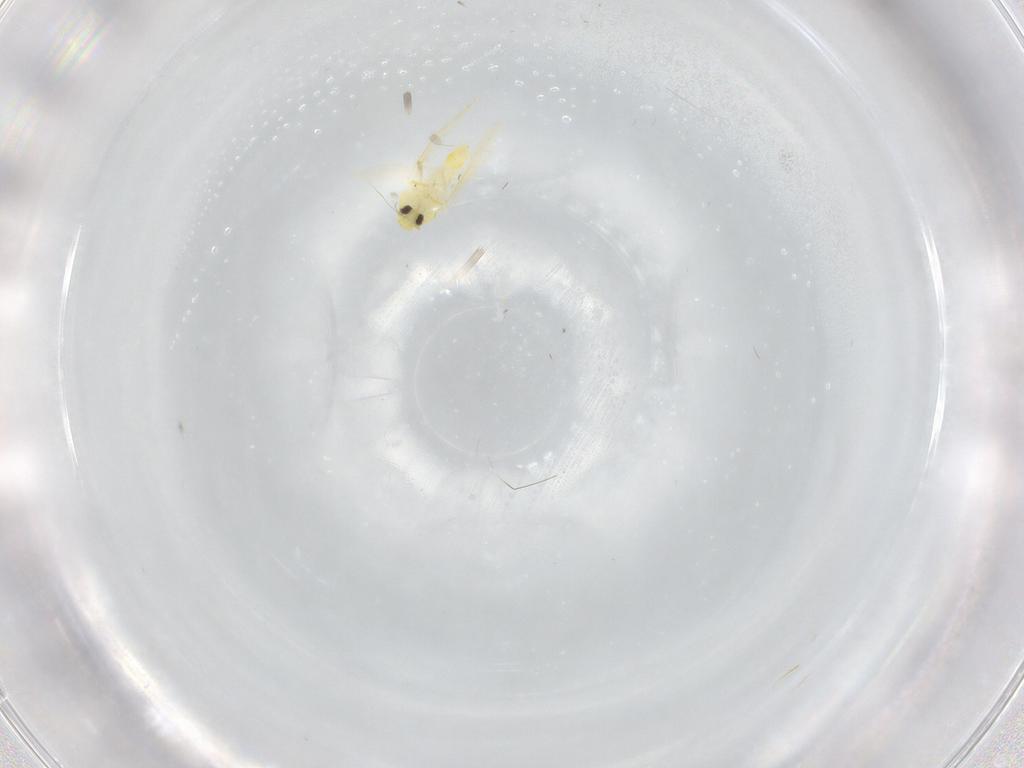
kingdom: Animalia
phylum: Arthropoda
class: Insecta
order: Hemiptera
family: Aleyrodidae
